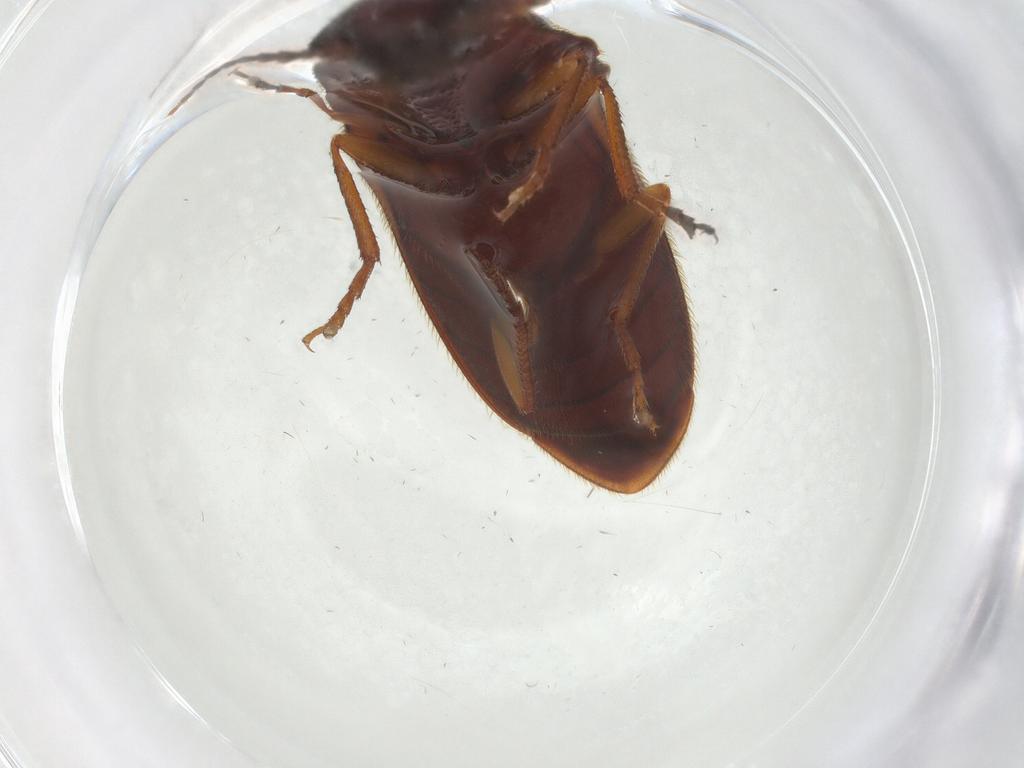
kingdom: Animalia
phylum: Arthropoda
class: Insecta
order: Coleoptera
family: Elateridae
